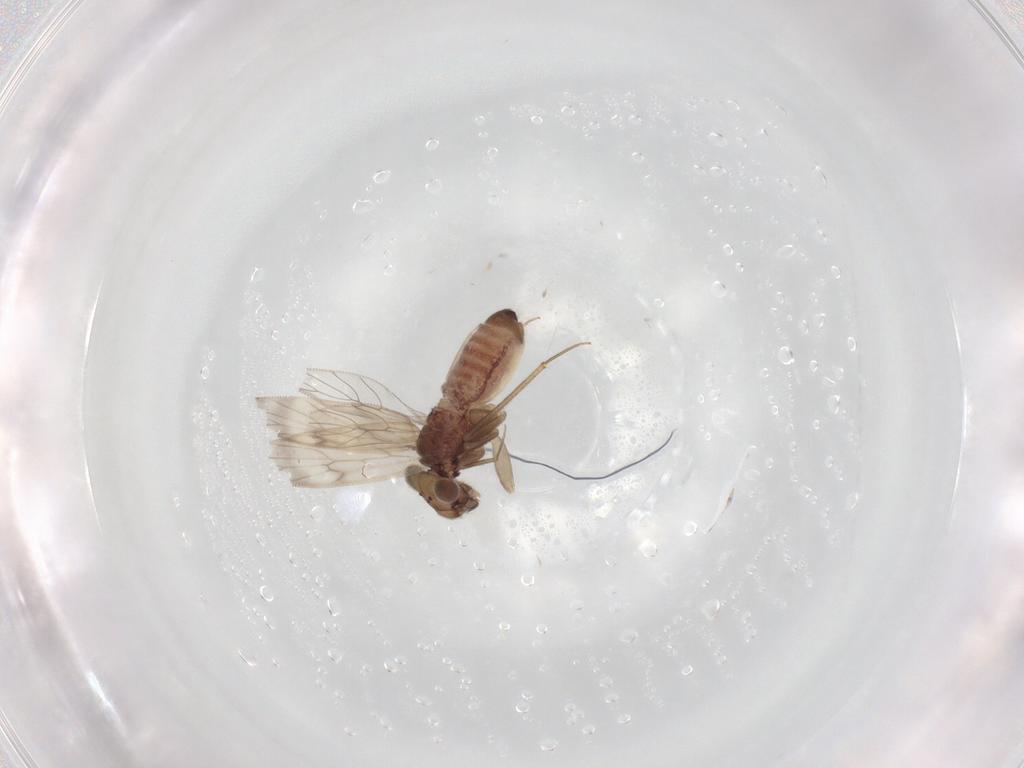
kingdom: Animalia
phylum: Arthropoda
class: Insecta
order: Psocodea
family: Lepidopsocidae
